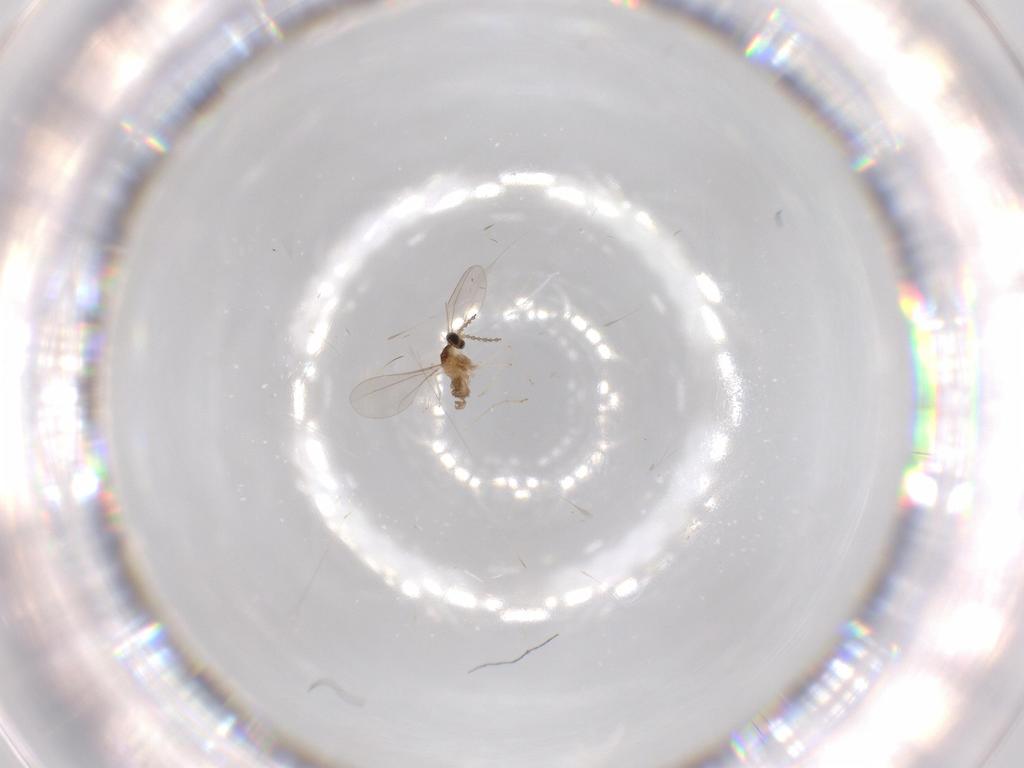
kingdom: Animalia
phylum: Arthropoda
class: Insecta
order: Diptera
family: Cecidomyiidae
